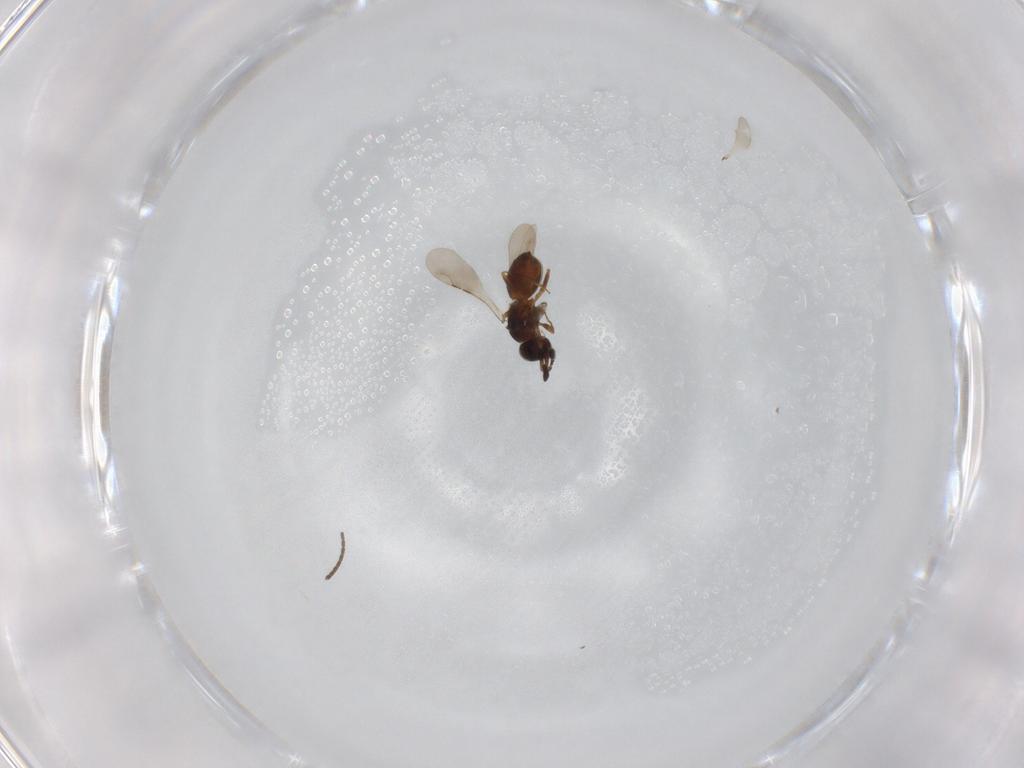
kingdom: Animalia
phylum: Arthropoda
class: Insecta
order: Hymenoptera
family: Ceraphronidae
